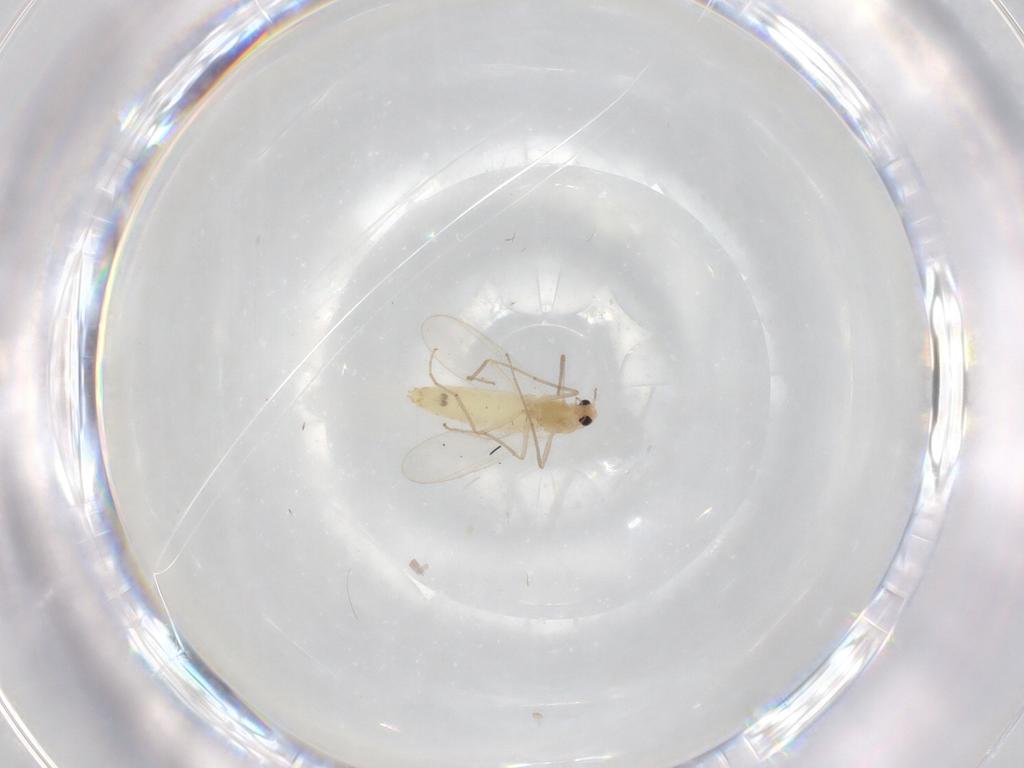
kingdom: Animalia
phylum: Arthropoda
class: Insecta
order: Diptera
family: Chironomidae
